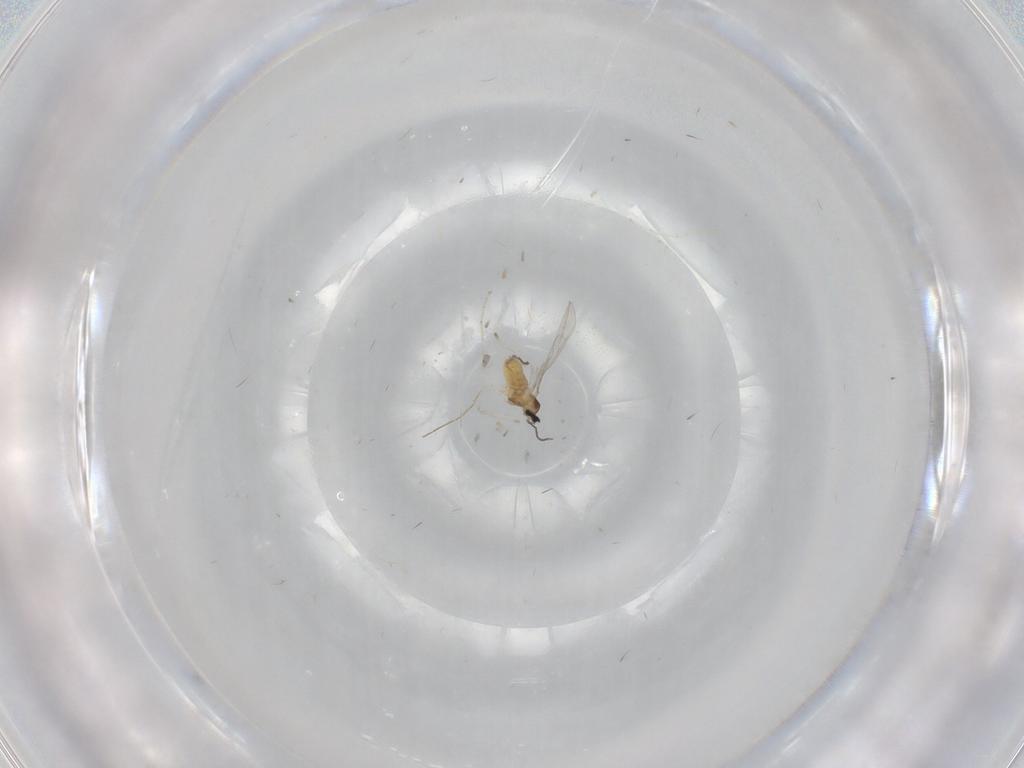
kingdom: Animalia
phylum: Arthropoda
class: Insecta
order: Diptera
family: Cecidomyiidae
